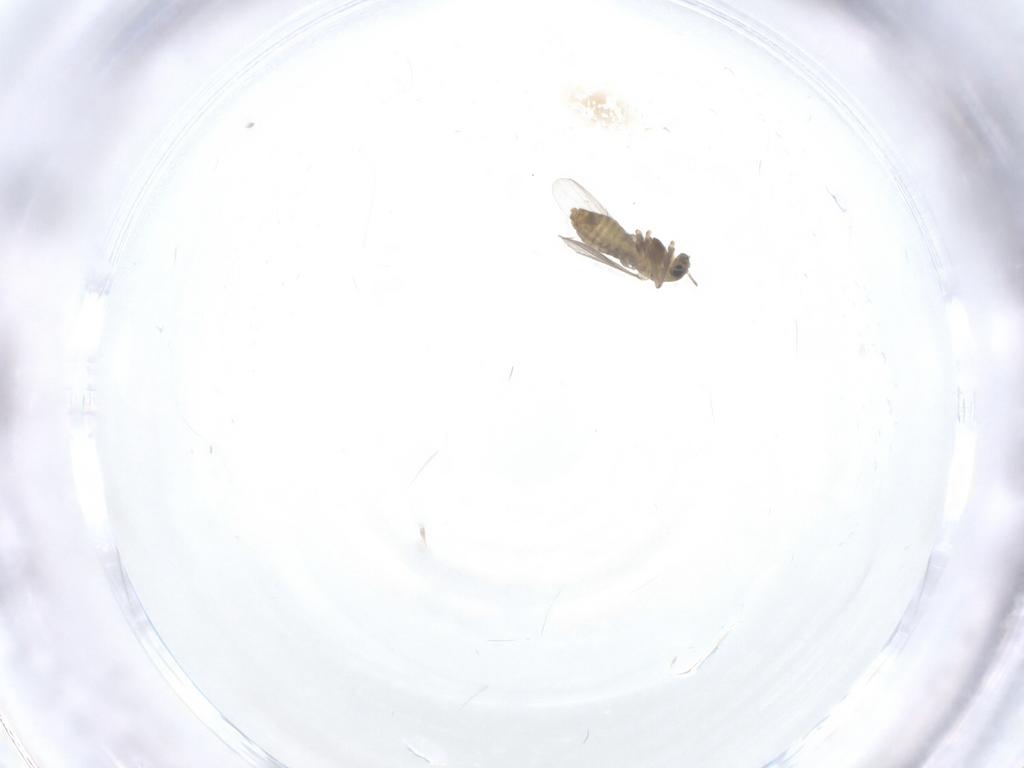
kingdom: Animalia
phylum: Arthropoda
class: Insecta
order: Diptera
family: Chironomidae
